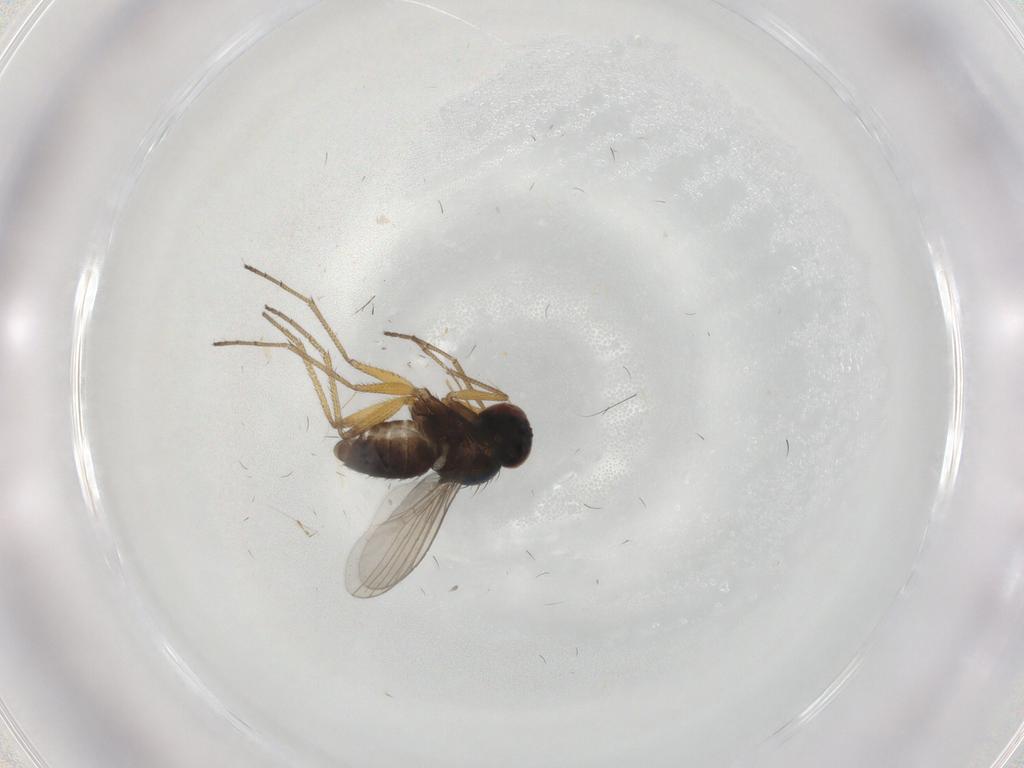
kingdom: Animalia
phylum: Arthropoda
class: Insecta
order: Diptera
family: Dolichopodidae
